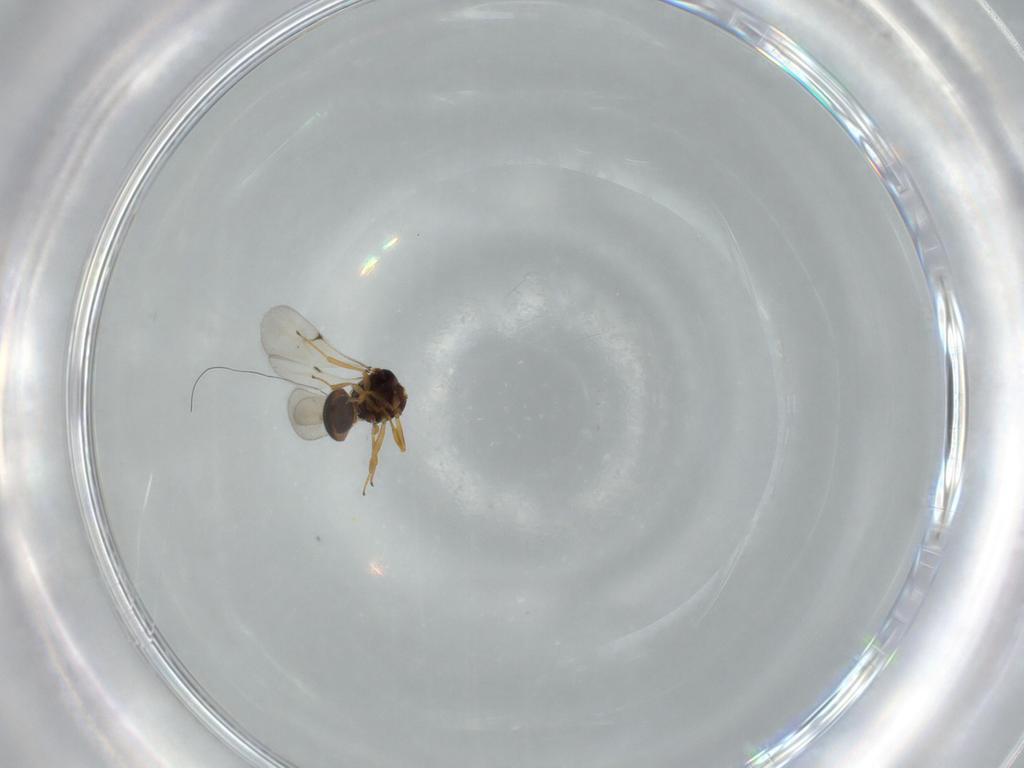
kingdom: Animalia
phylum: Arthropoda
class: Insecta
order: Hymenoptera
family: Scelionidae
